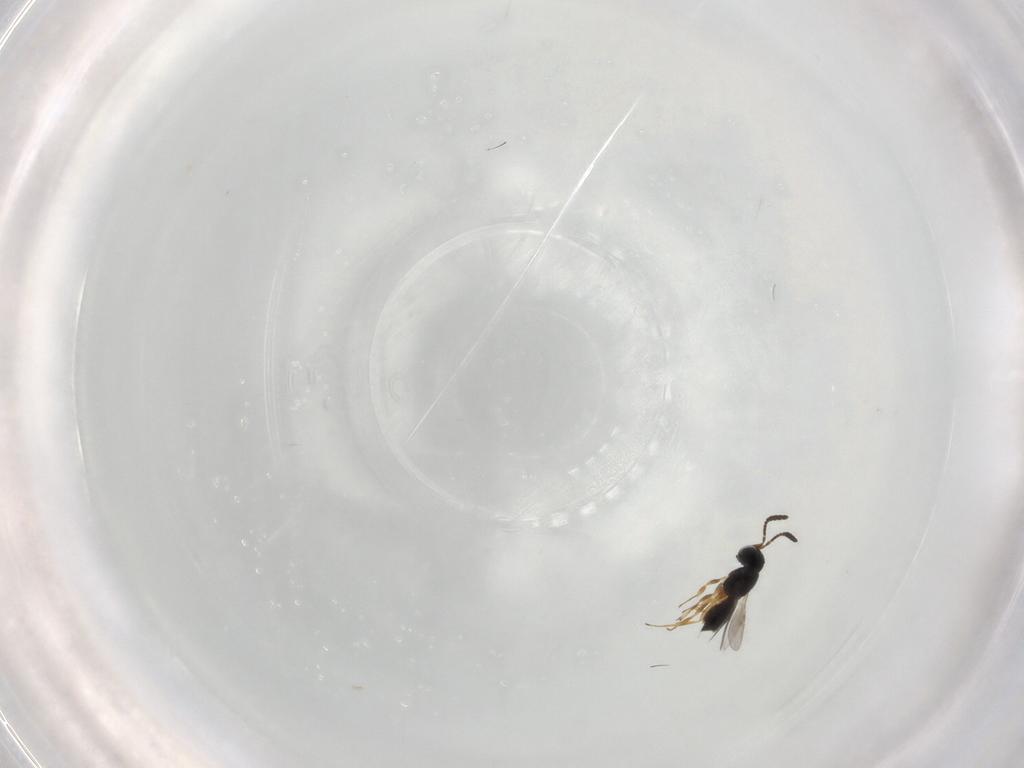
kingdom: Animalia
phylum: Arthropoda
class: Insecta
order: Hymenoptera
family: Scelionidae
